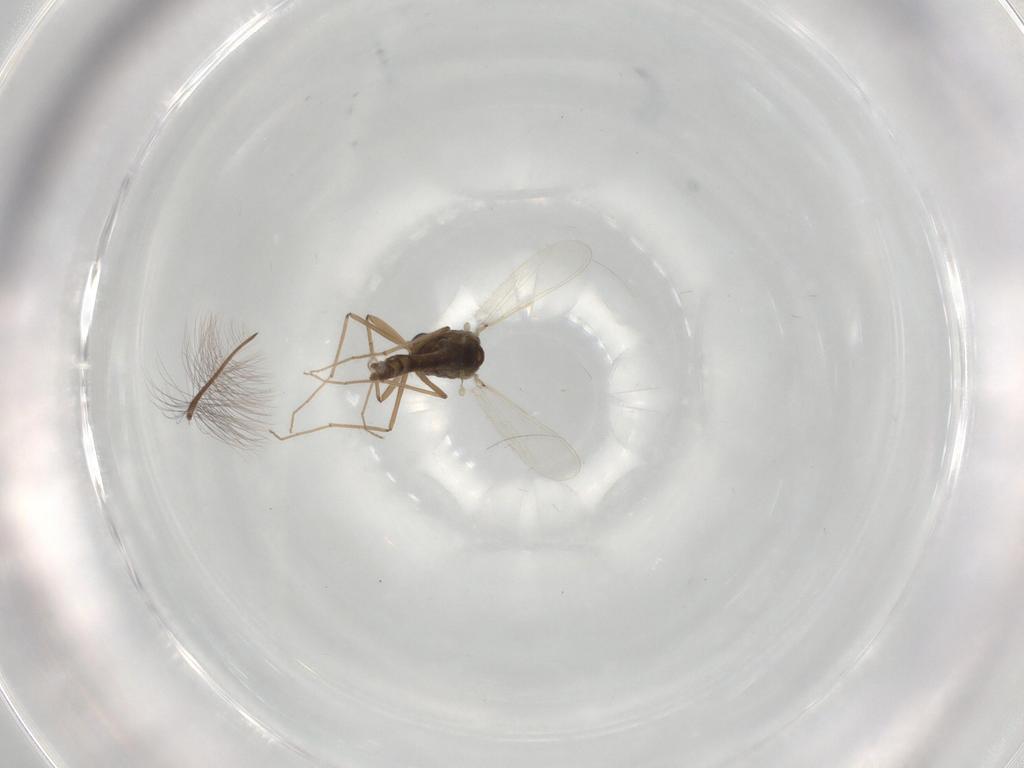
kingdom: Animalia
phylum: Arthropoda
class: Insecta
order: Diptera
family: Chironomidae
